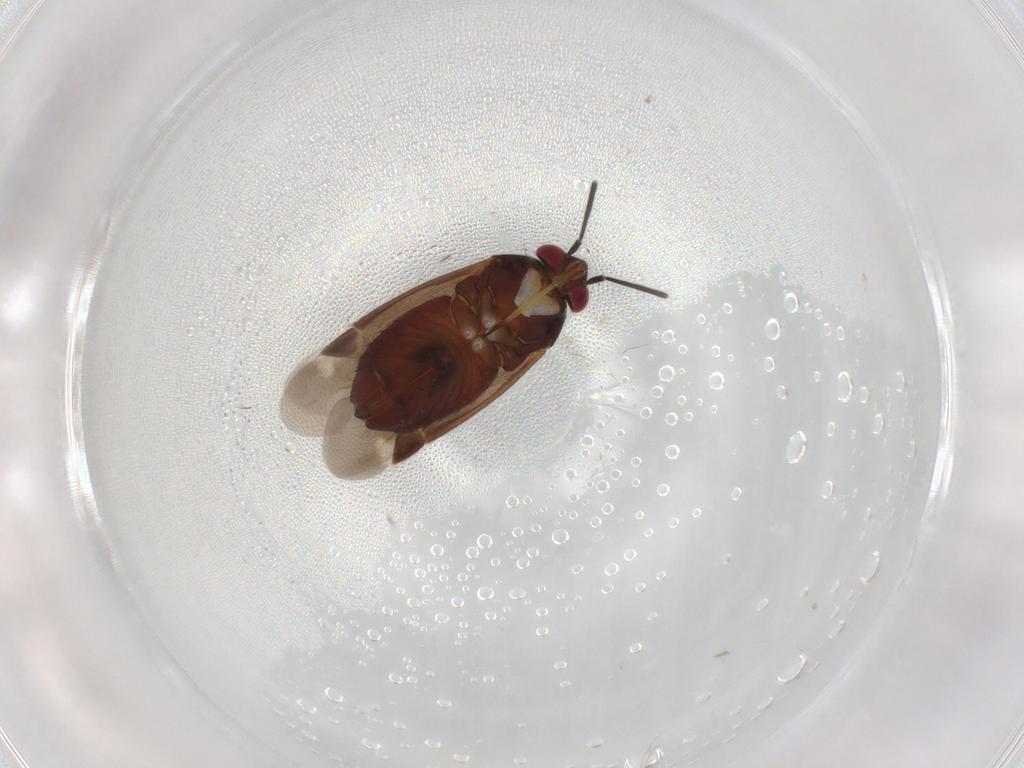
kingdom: Animalia
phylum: Arthropoda
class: Insecta
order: Hemiptera
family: Miridae
